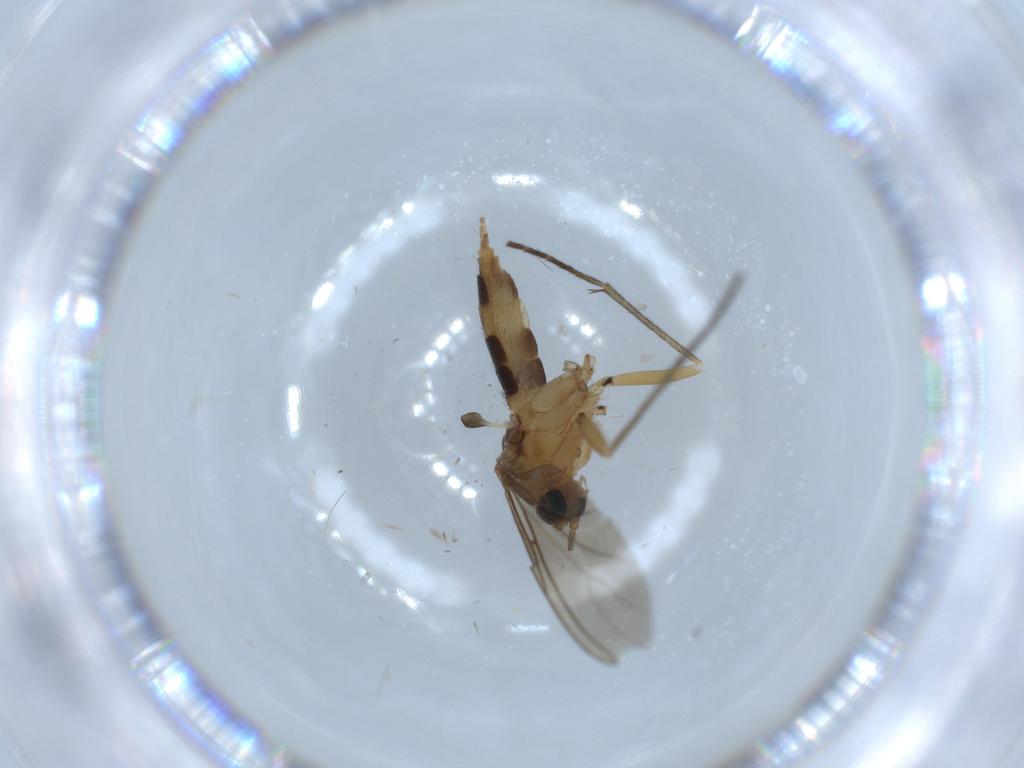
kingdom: Animalia
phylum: Arthropoda
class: Insecta
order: Diptera
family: Sciaridae
